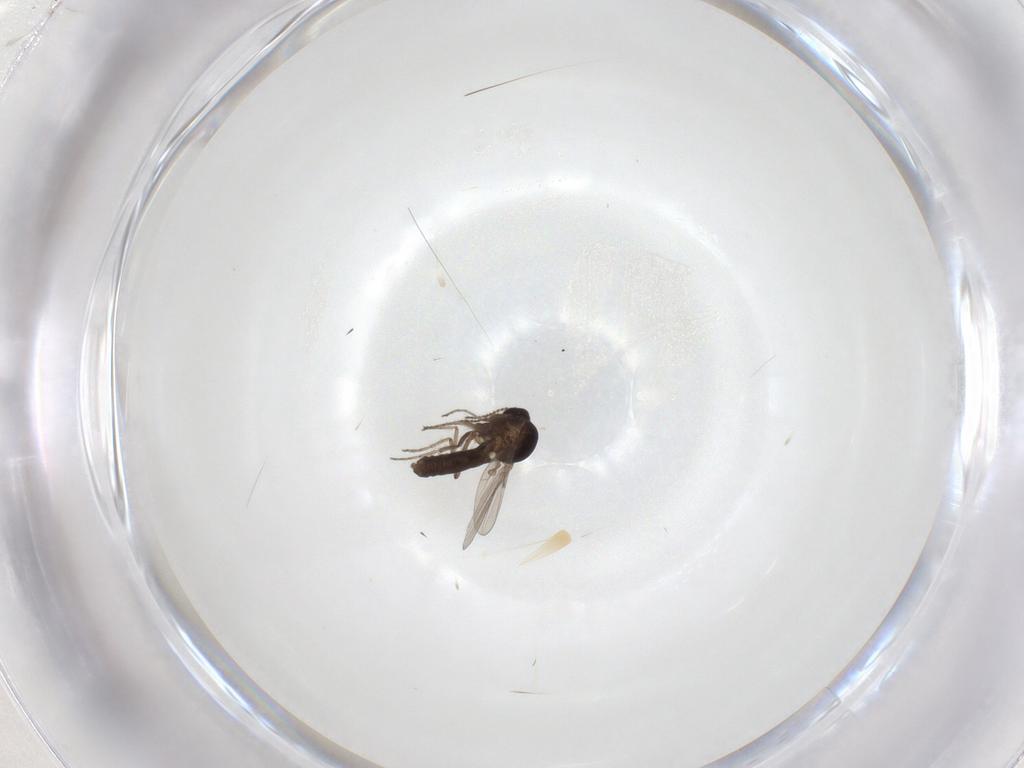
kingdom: Animalia
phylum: Arthropoda
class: Insecta
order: Diptera
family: Ceratopogonidae
